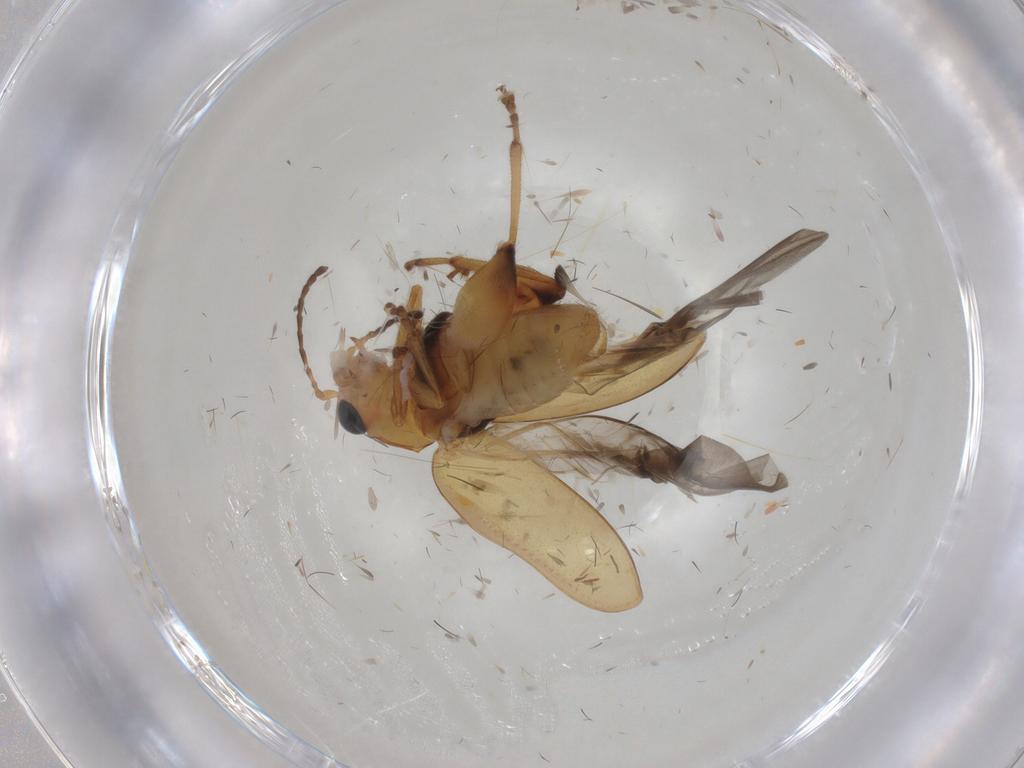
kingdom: Animalia
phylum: Arthropoda
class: Insecta
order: Coleoptera
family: Chrysomelidae
